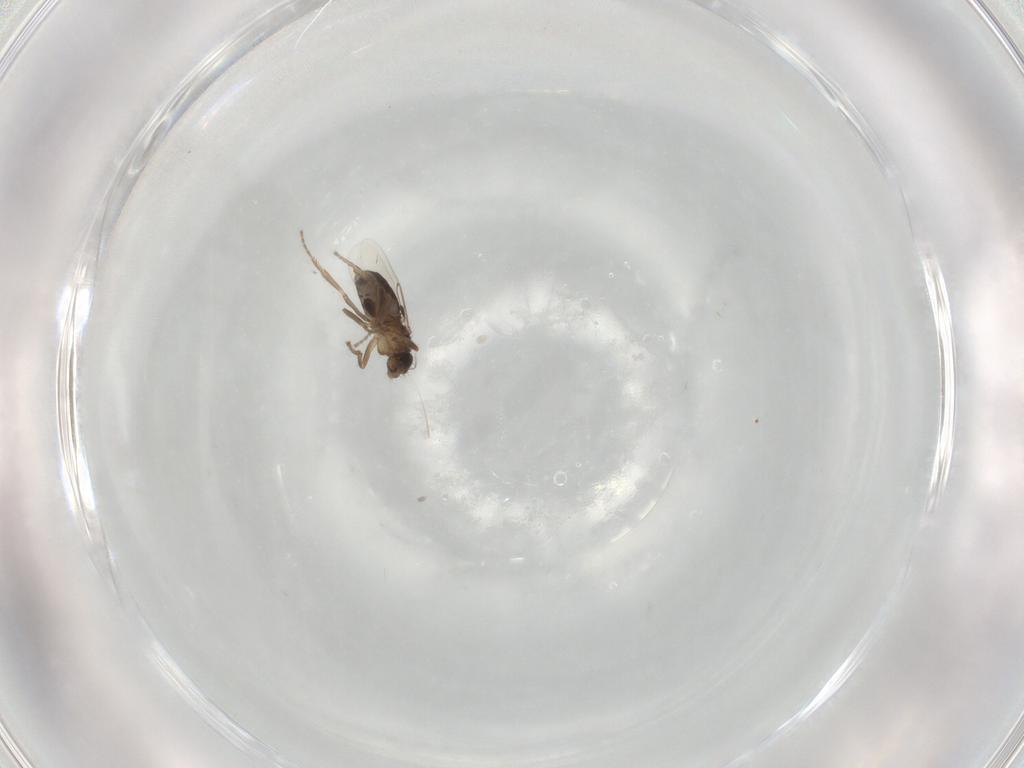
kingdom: Animalia
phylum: Arthropoda
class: Insecta
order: Diptera
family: Phoridae
